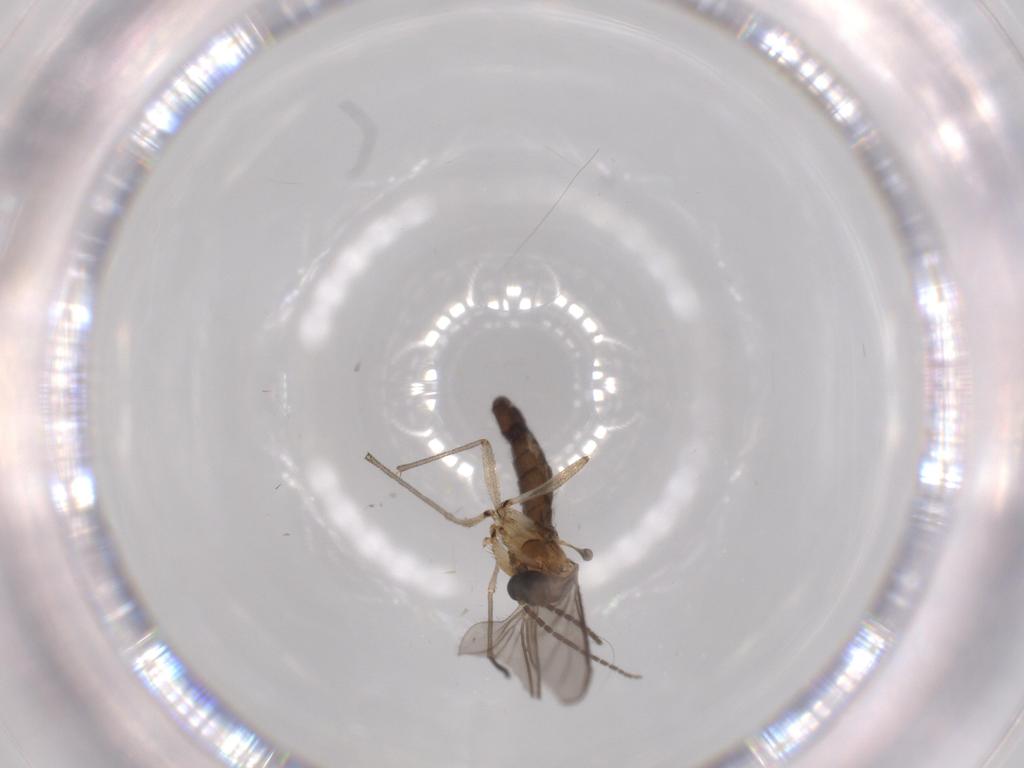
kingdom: Animalia
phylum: Arthropoda
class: Insecta
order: Diptera
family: Sciaridae
